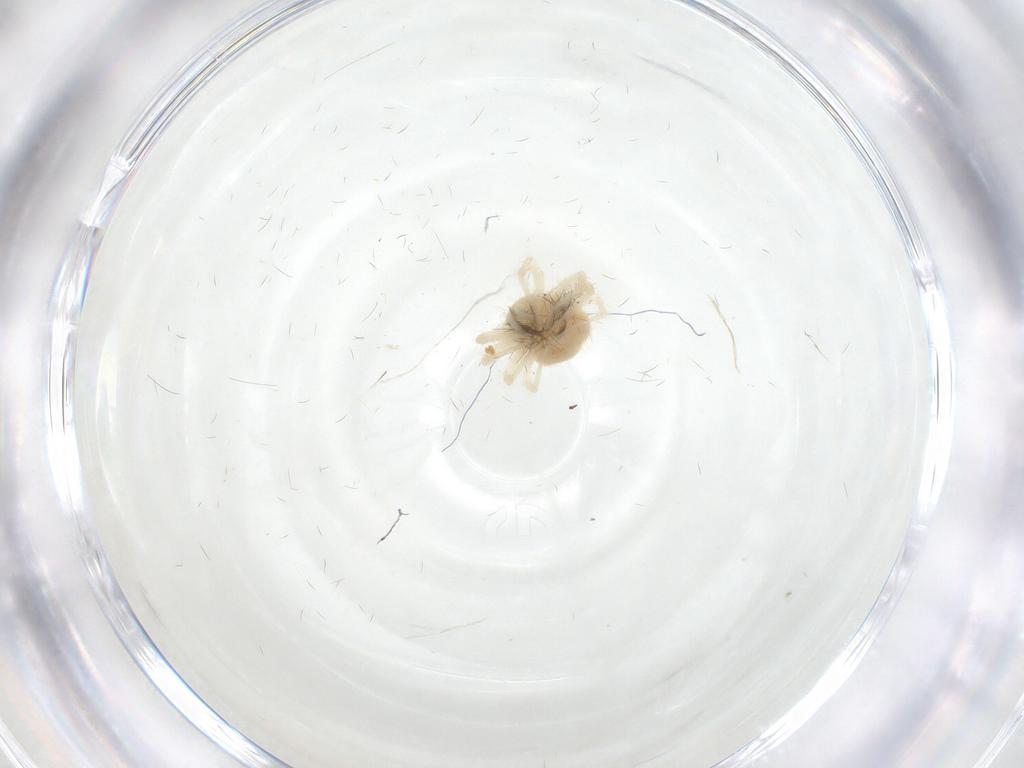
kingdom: Animalia
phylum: Arthropoda
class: Arachnida
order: Trombidiformes
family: Anystidae
